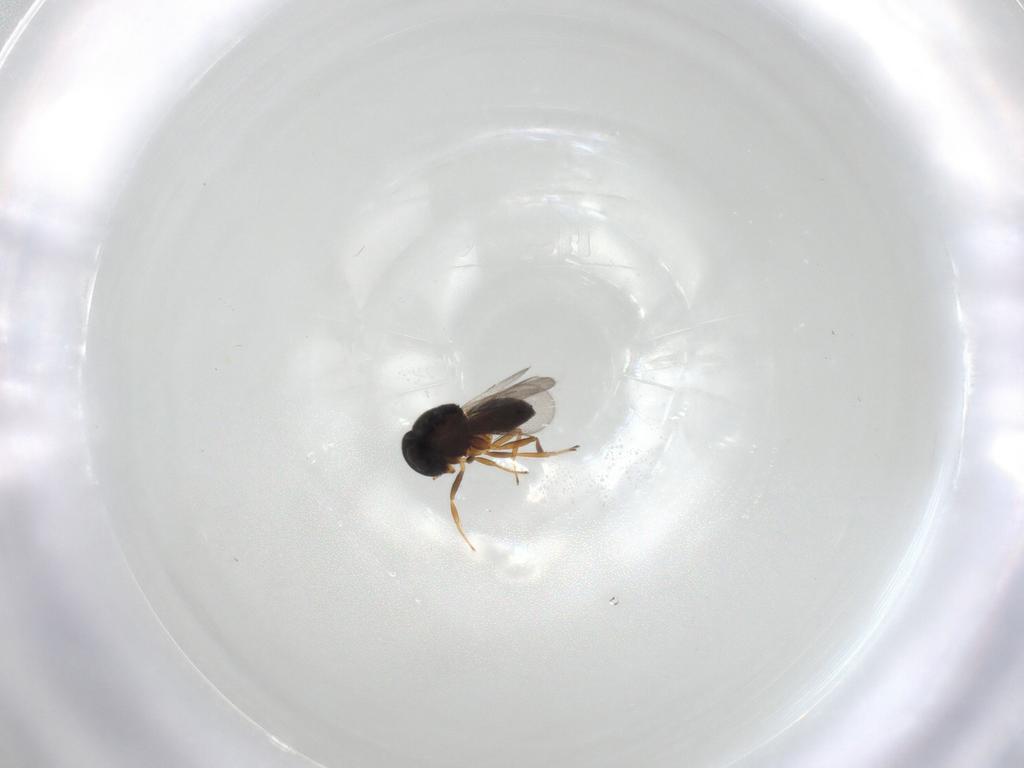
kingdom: Animalia
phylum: Arthropoda
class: Insecta
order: Hymenoptera
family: Scelionidae
